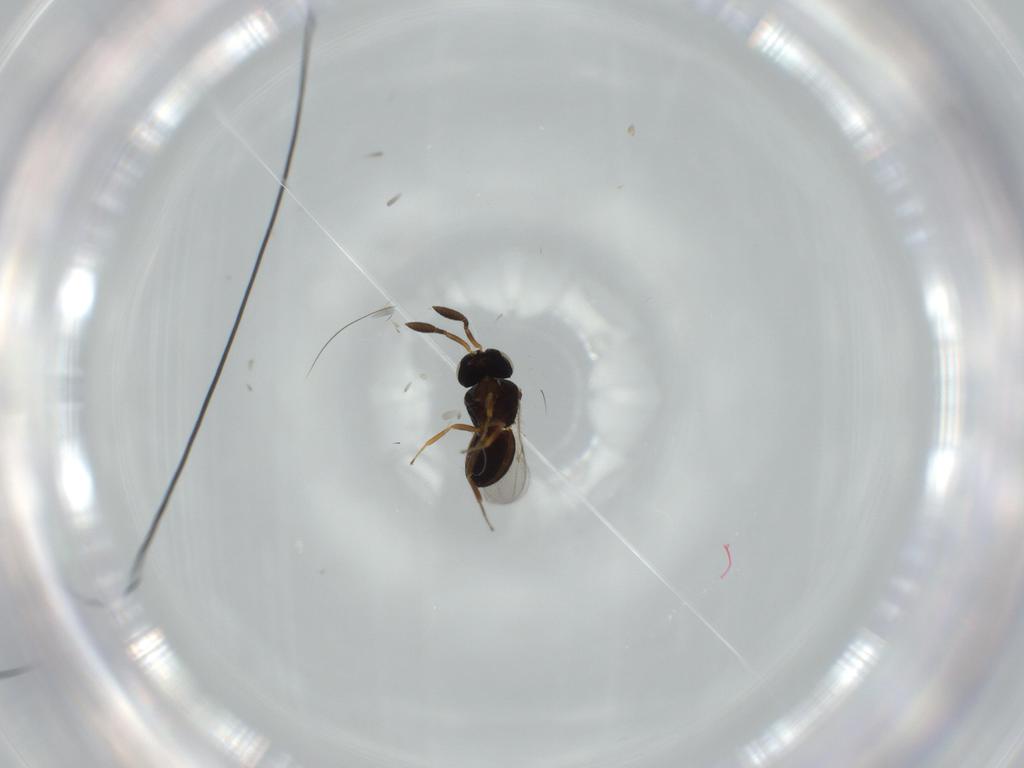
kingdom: Animalia
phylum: Arthropoda
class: Insecta
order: Coleoptera
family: Curculionidae
